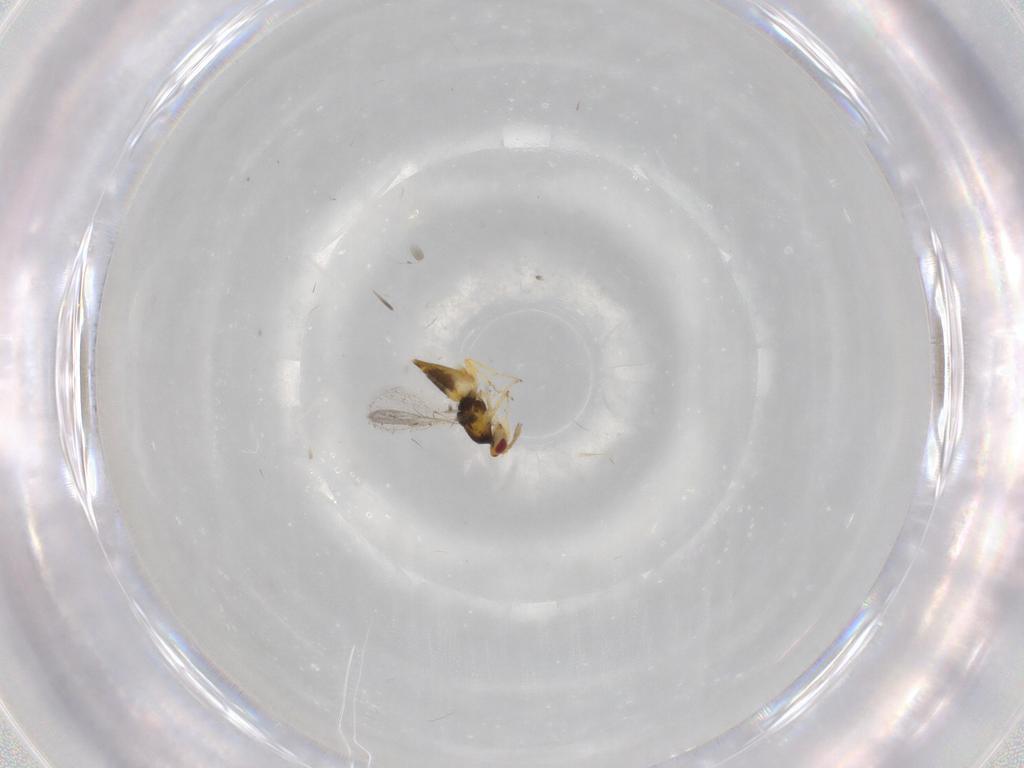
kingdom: Animalia
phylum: Arthropoda
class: Insecta
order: Hymenoptera
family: Eulophidae
